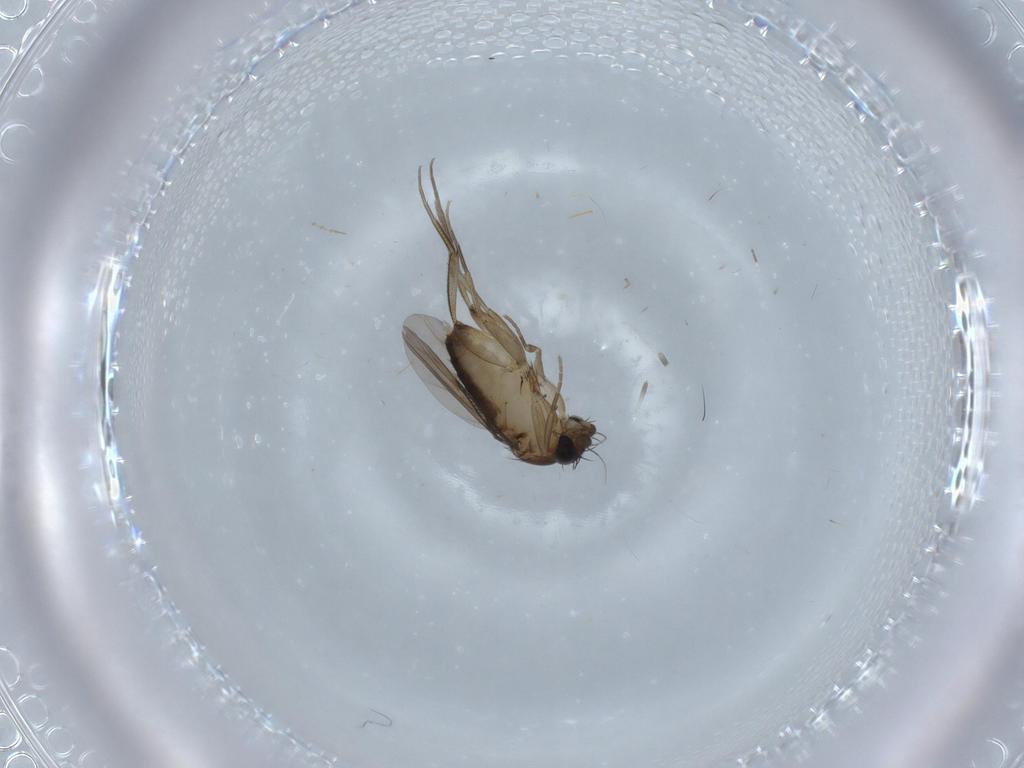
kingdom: Animalia
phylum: Arthropoda
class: Insecta
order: Diptera
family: Phoridae
